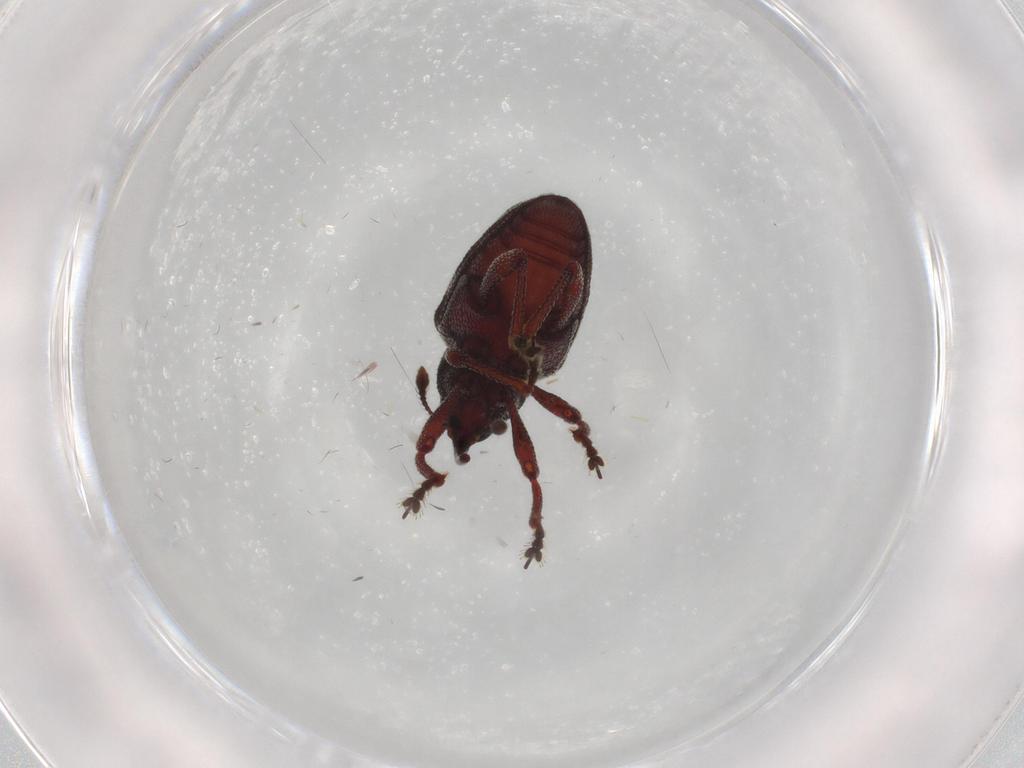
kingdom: Animalia
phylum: Arthropoda
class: Insecta
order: Coleoptera
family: Curculionidae
